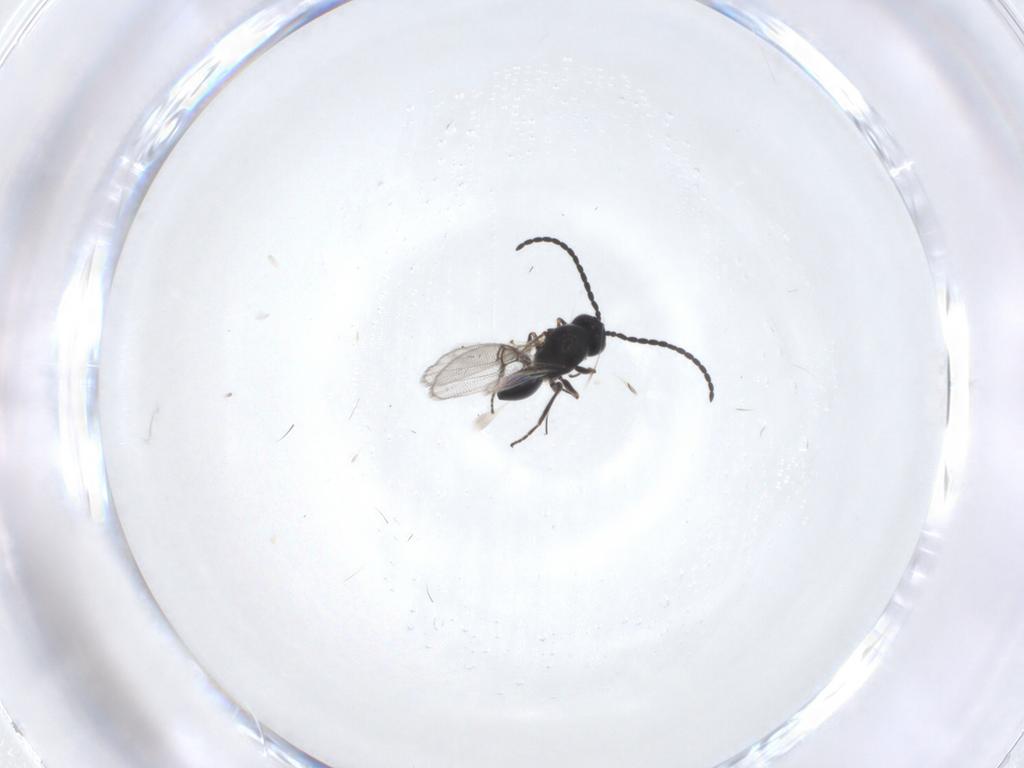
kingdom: Animalia
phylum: Arthropoda
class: Insecta
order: Hymenoptera
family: Figitidae
